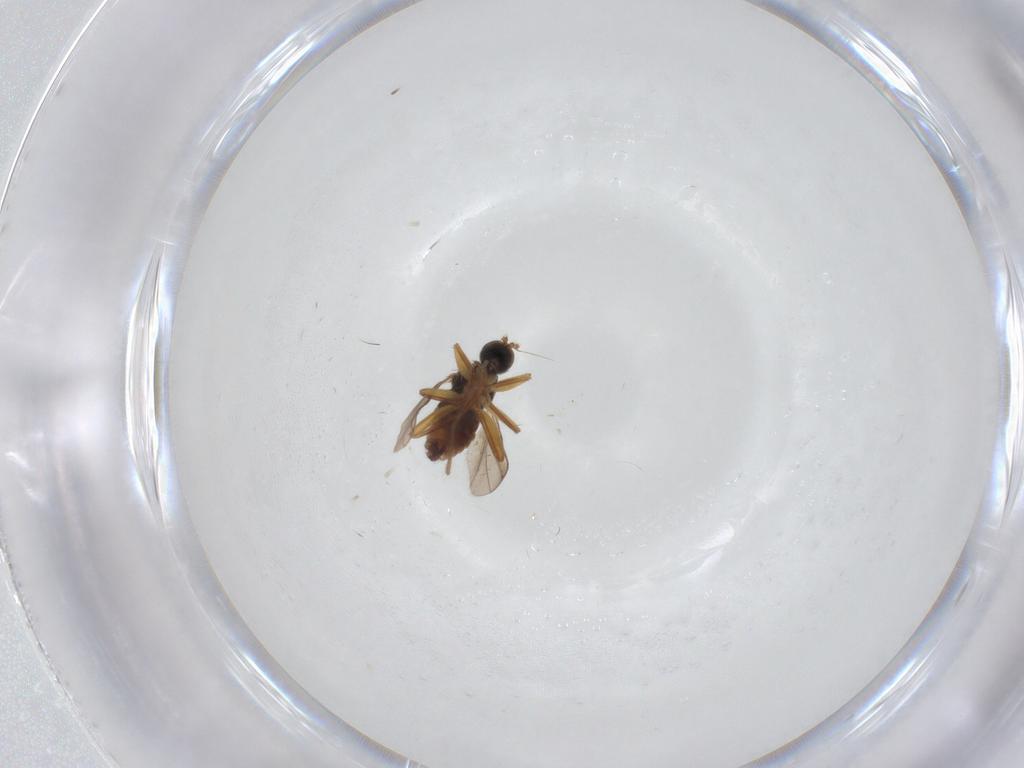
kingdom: Animalia
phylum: Arthropoda
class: Insecta
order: Diptera
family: Hybotidae
